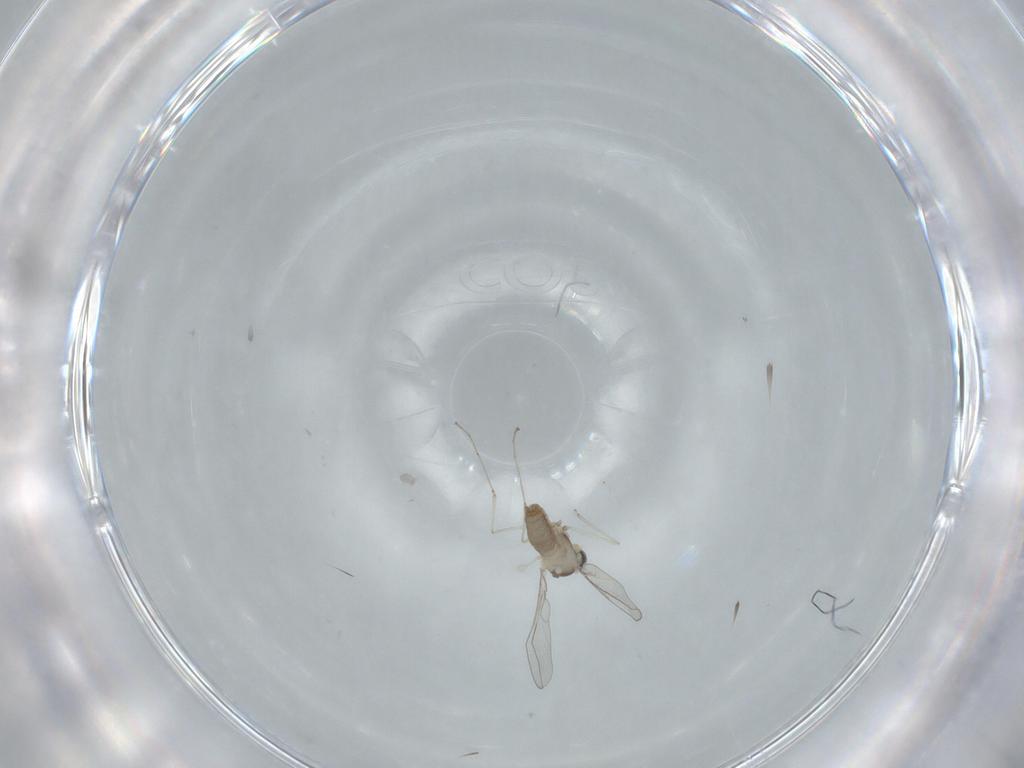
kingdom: Animalia
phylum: Arthropoda
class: Insecta
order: Diptera
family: Cecidomyiidae
